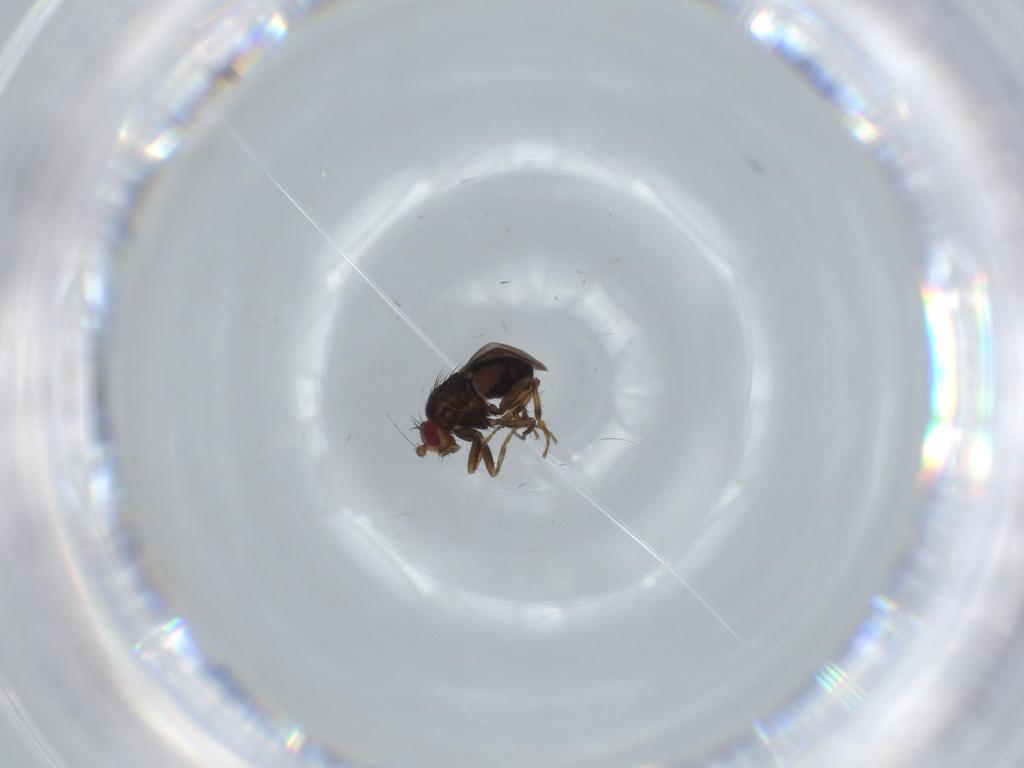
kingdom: Animalia
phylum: Arthropoda
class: Insecta
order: Diptera
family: Sphaeroceridae
